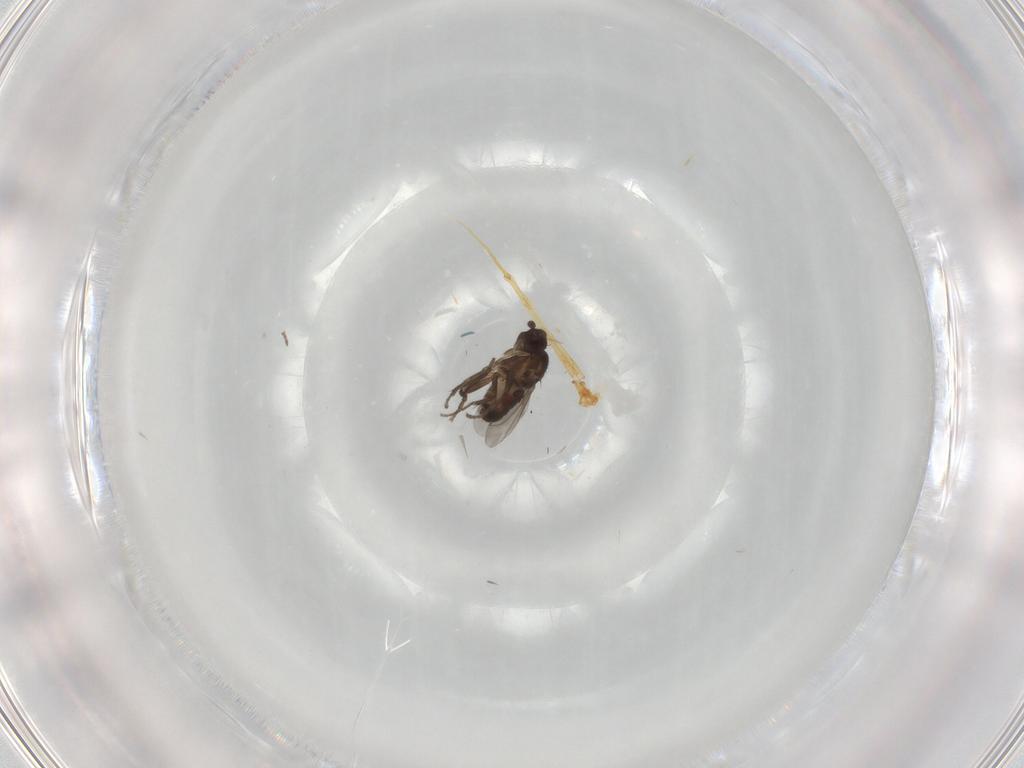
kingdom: Animalia
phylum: Arthropoda
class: Insecta
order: Diptera
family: Sphaeroceridae
